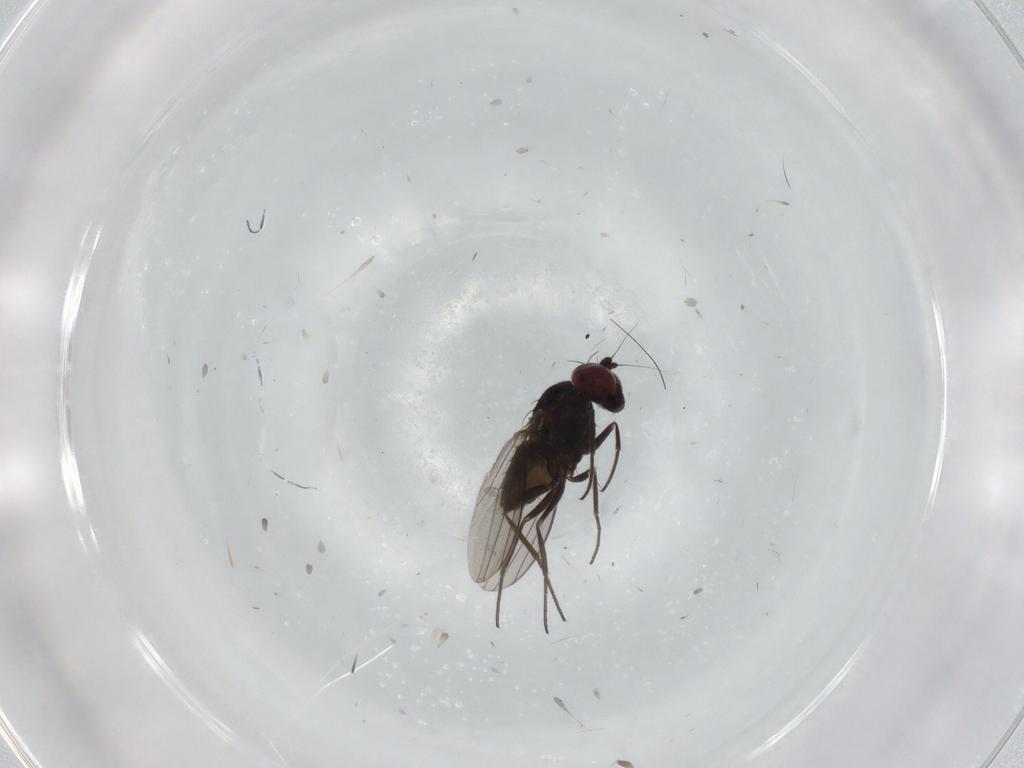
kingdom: Animalia
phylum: Arthropoda
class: Insecta
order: Diptera
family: Dolichopodidae
